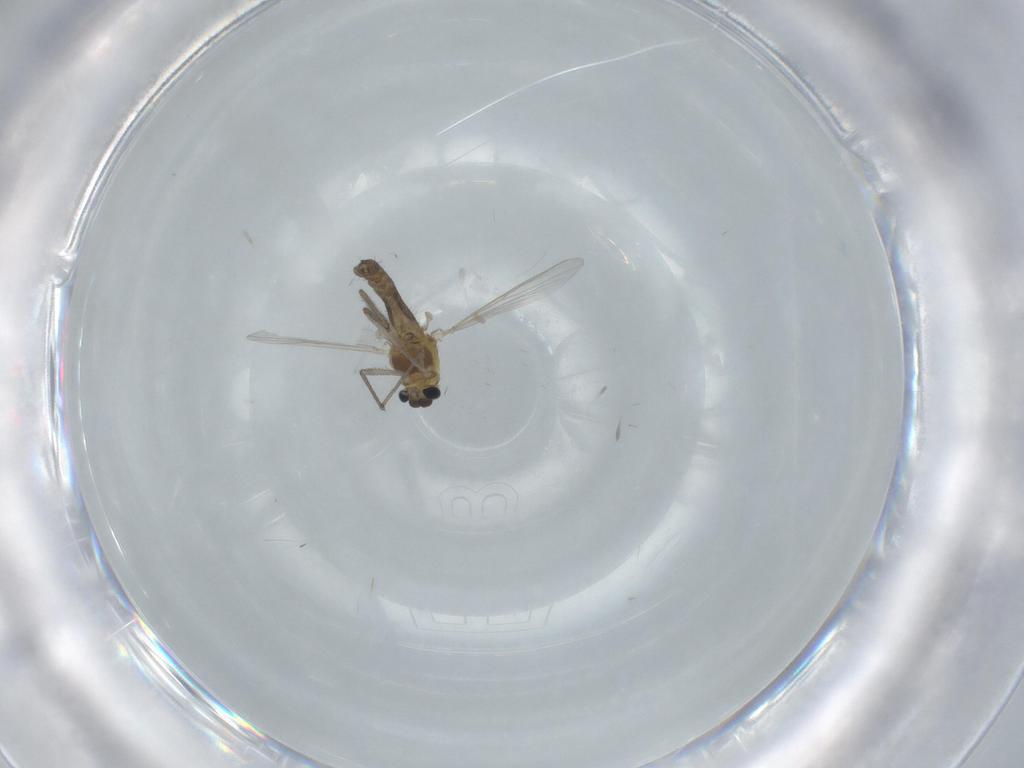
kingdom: Animalia
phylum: Arthropoda
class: Insecta
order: Diptera
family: Chironomidae
